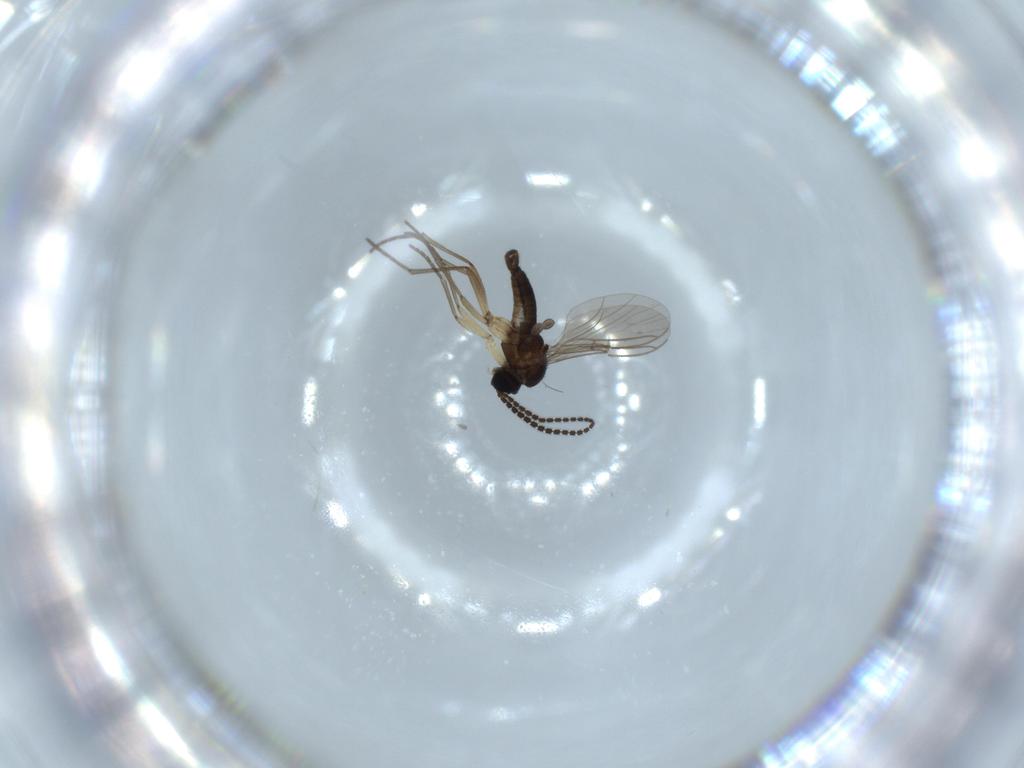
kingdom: Animalia
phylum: Arthropoda
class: Insecta
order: Diptera
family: Sciaridae
